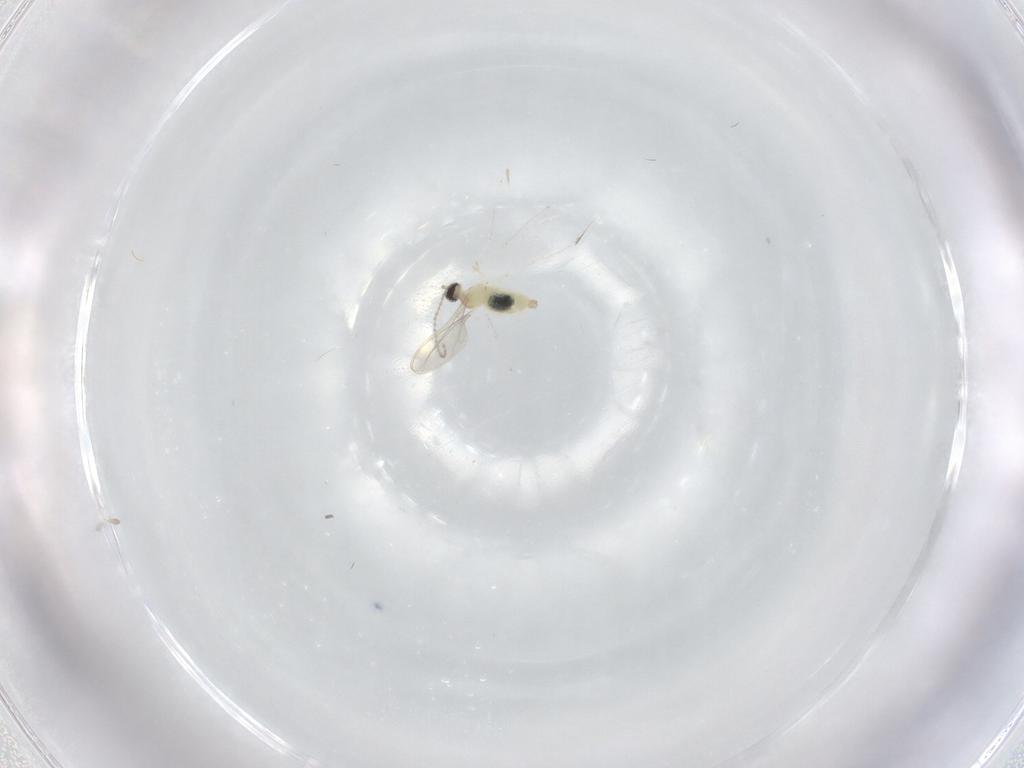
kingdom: Animalia
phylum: Arthropoda
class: Insecta
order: Diptera
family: Cecidomyiidae
